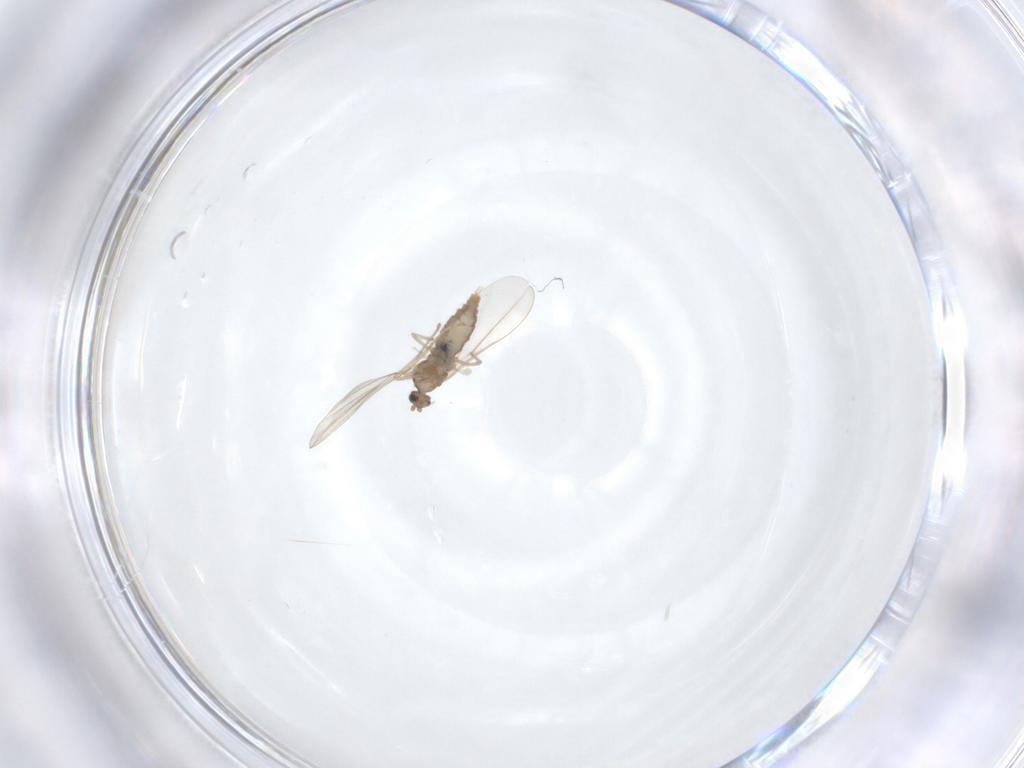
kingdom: Animalia
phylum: Arthropoda
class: Insecta
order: Diptera
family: Cecidomyiidae
